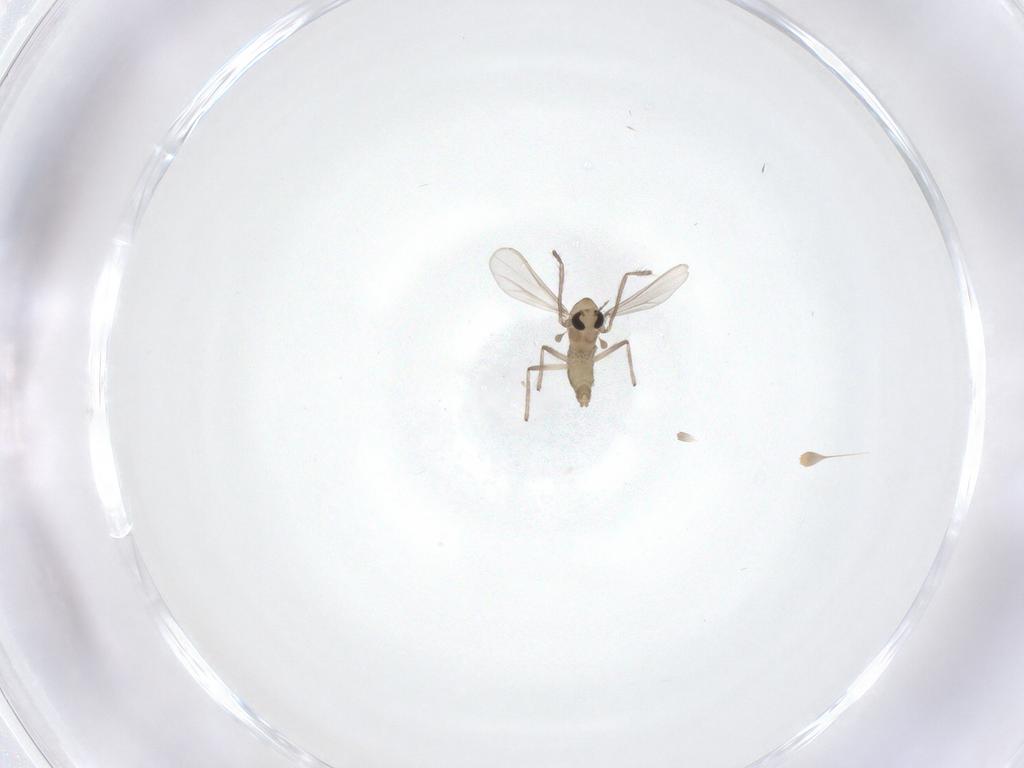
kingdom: Animalia
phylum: Arthropoda
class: Insecta
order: Diptera
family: Chironomidae
